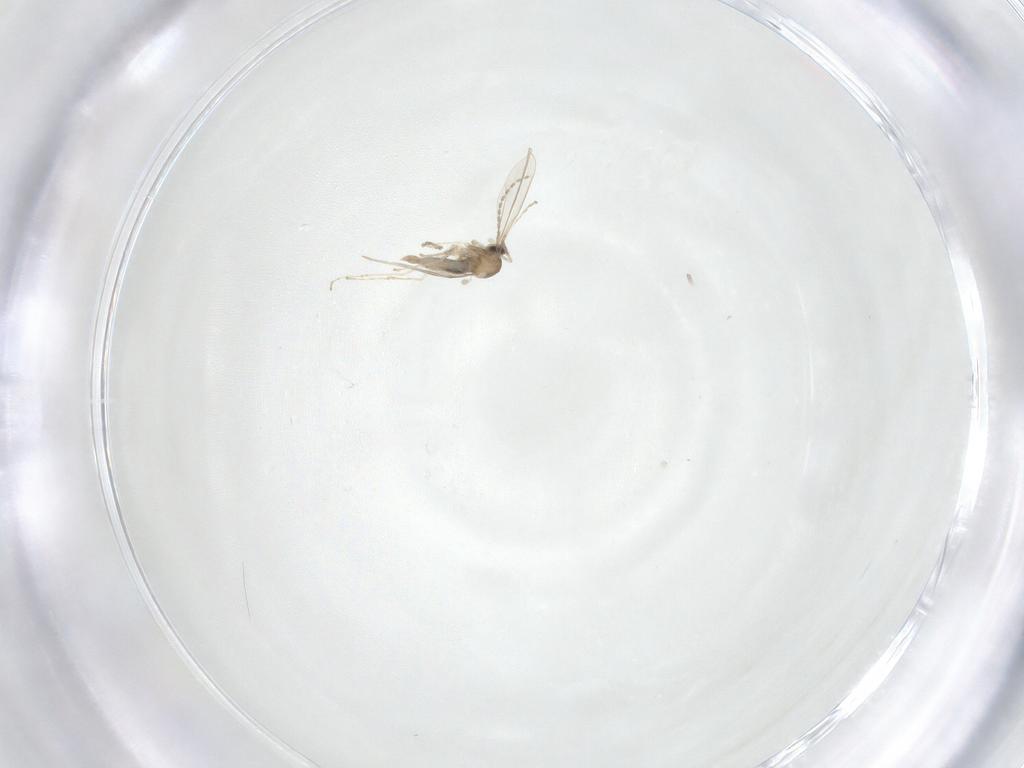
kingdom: Animalia
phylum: Arthropoda
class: Insecta
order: Diptera
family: Cecidomyiidae
